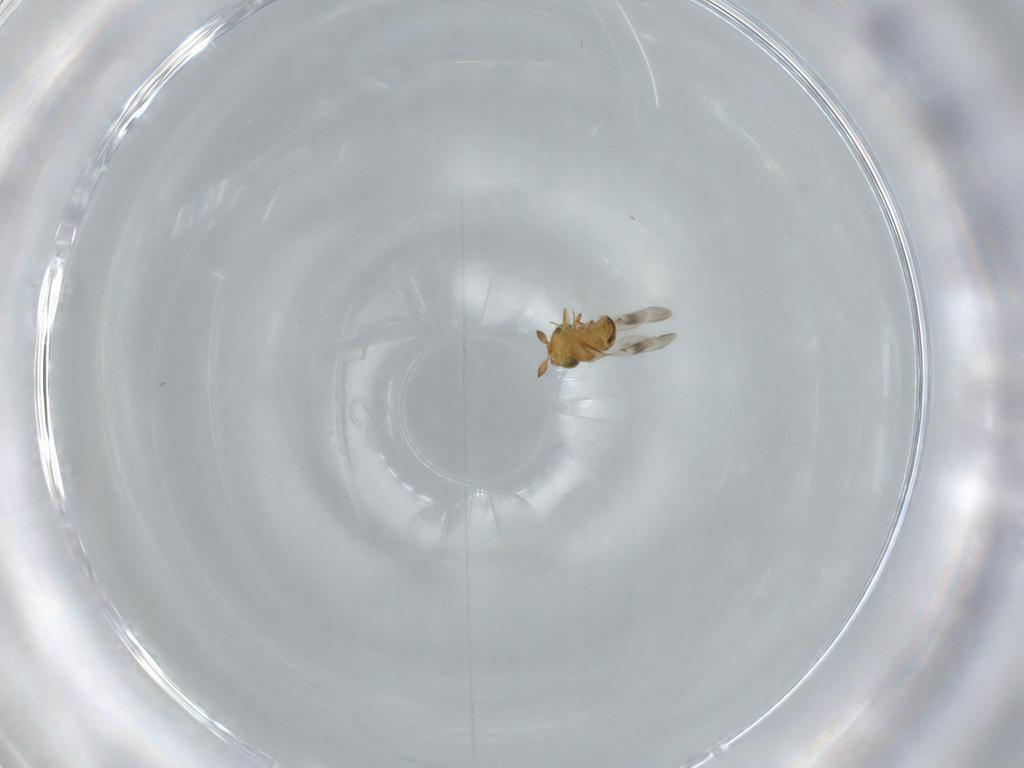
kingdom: Animalia
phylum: Arthropoda
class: Insecta
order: Hymenoptera
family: Scelionidae
